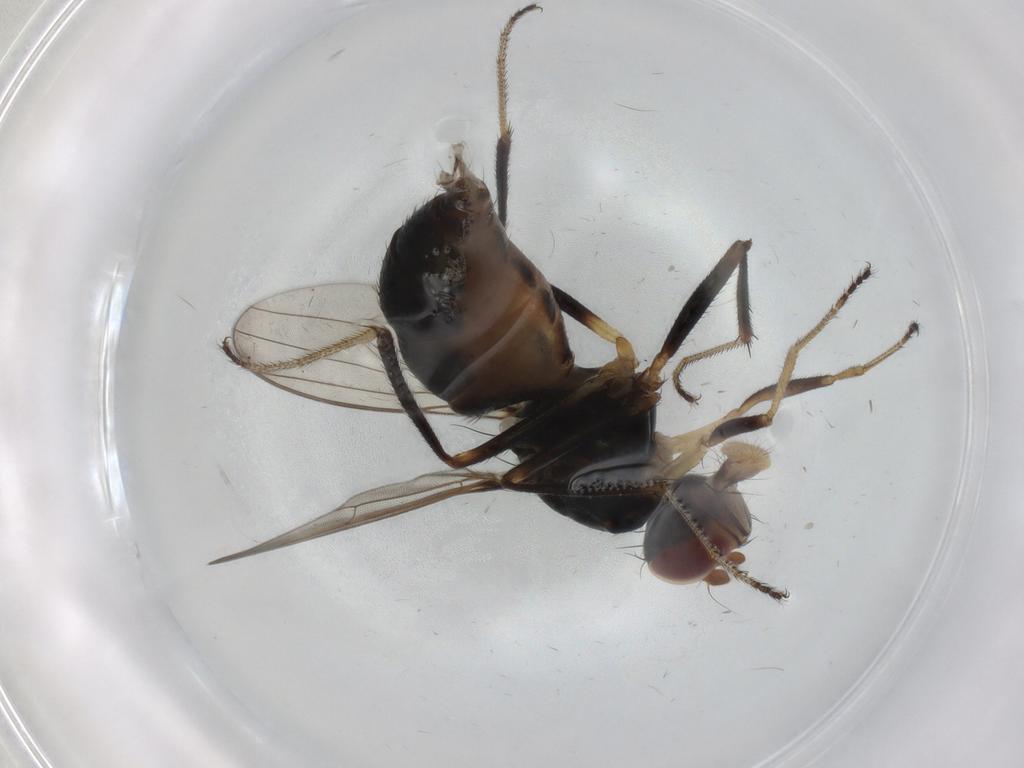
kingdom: Animalia
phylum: Arthropoda
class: Insecta
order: Diptera
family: Sepsidae
